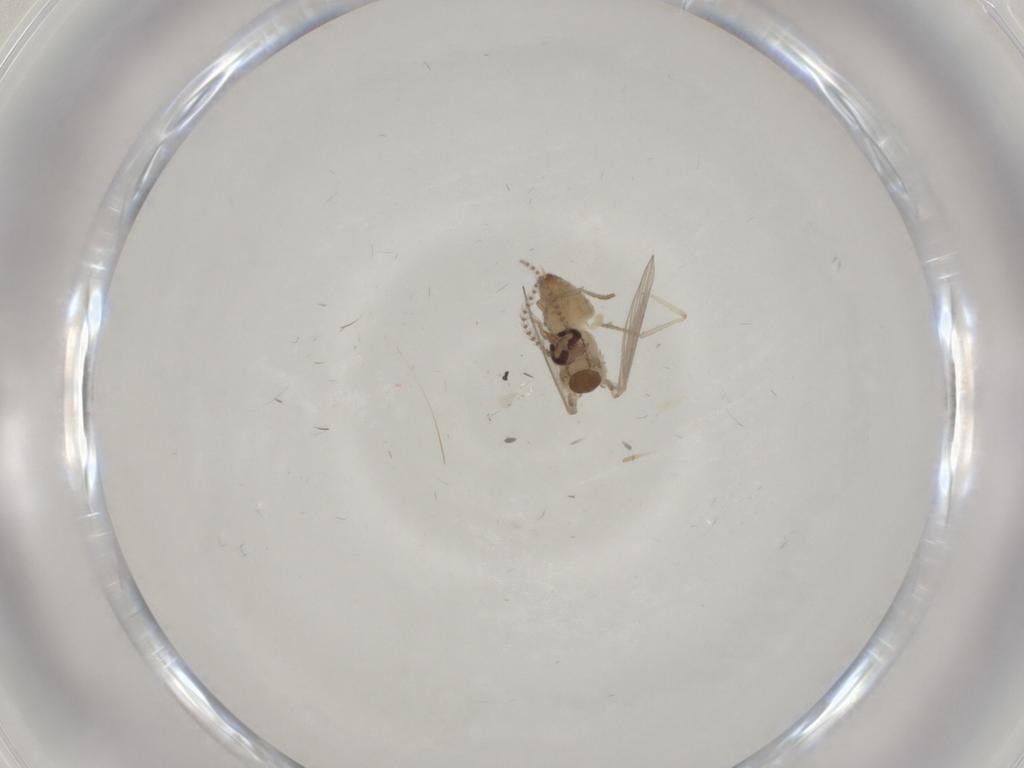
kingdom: Animalia
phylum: Arthropoda
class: Insecta
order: Diptera
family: Psychodidae
